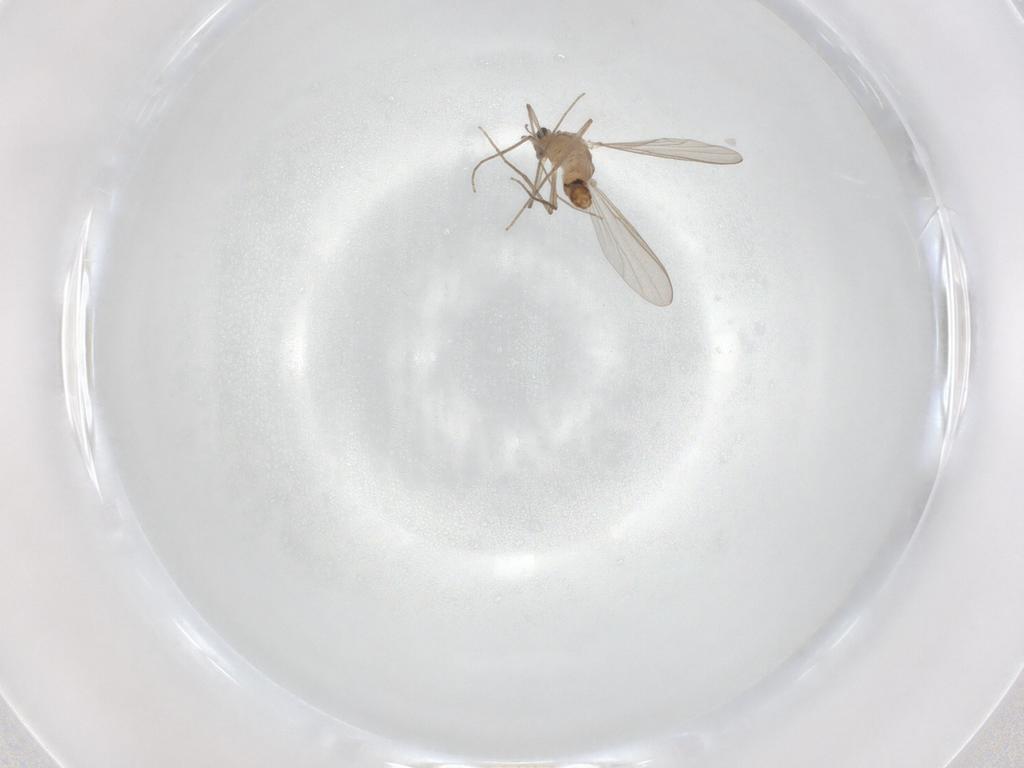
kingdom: Animalia
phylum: Arthropoda
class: Insecta
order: Diptera
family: Chironomidae
